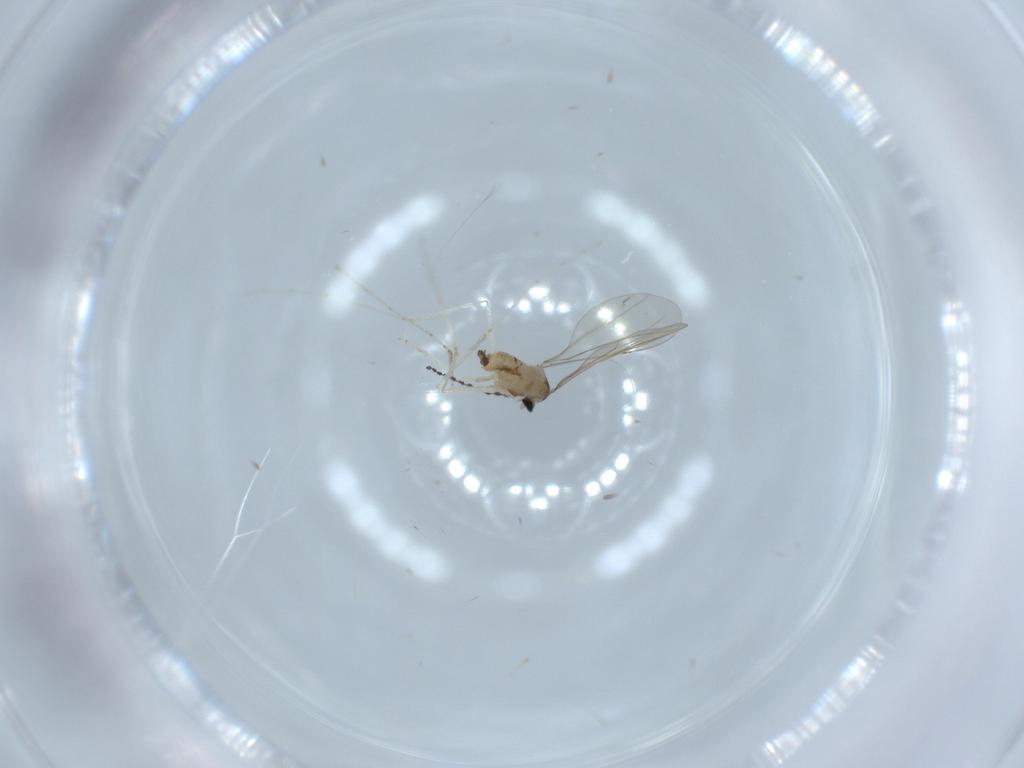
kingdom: Animalia
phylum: Arthropoda
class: Insecta
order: Diptera
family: Cecidomyiidae
